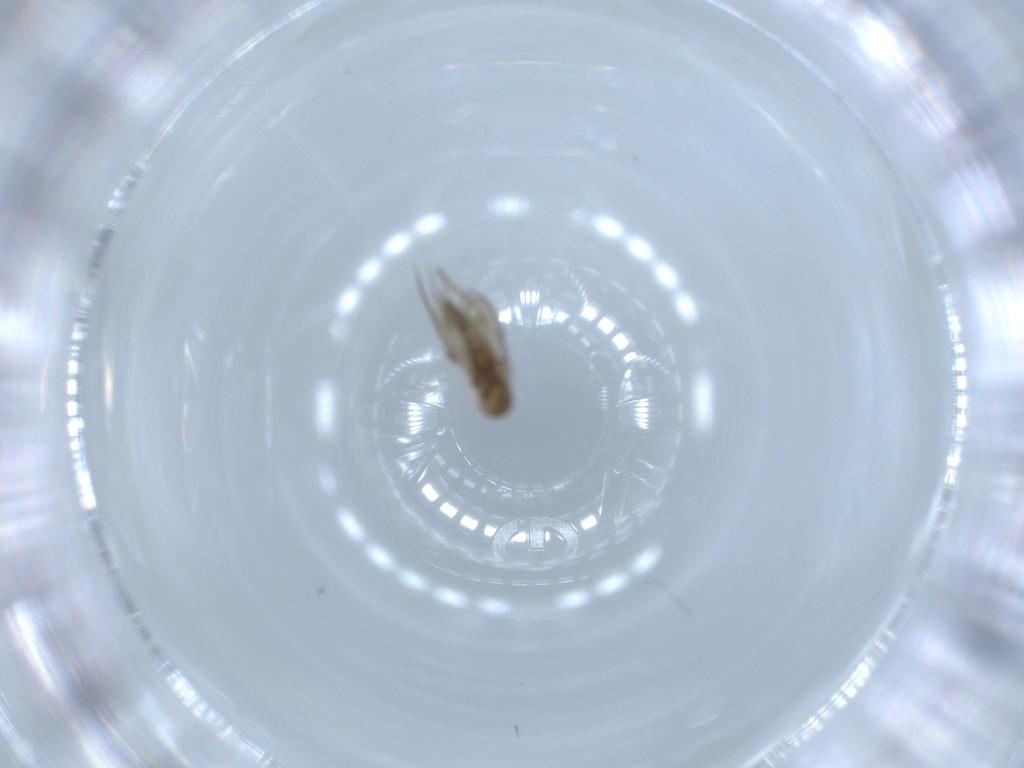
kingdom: Animalia
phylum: Arthropoda
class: Insecta
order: Diptera
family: Phoridae
